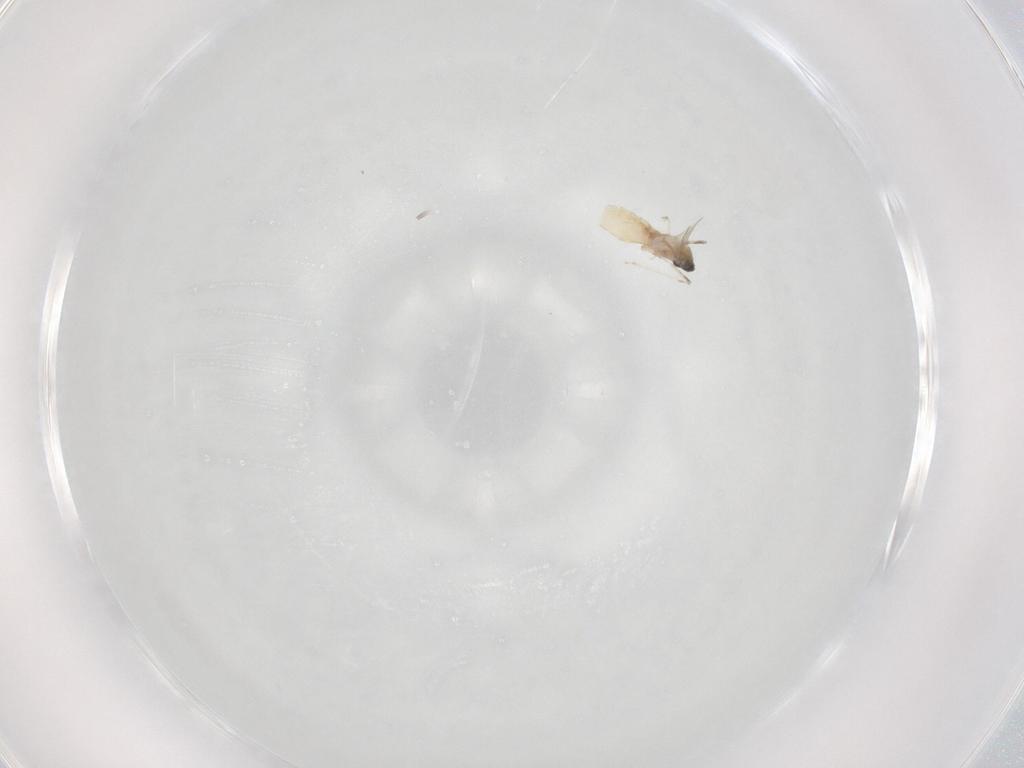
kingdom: Animalia
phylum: Arthropoda
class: Insecta
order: Diptera
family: Cecidomyiidae
